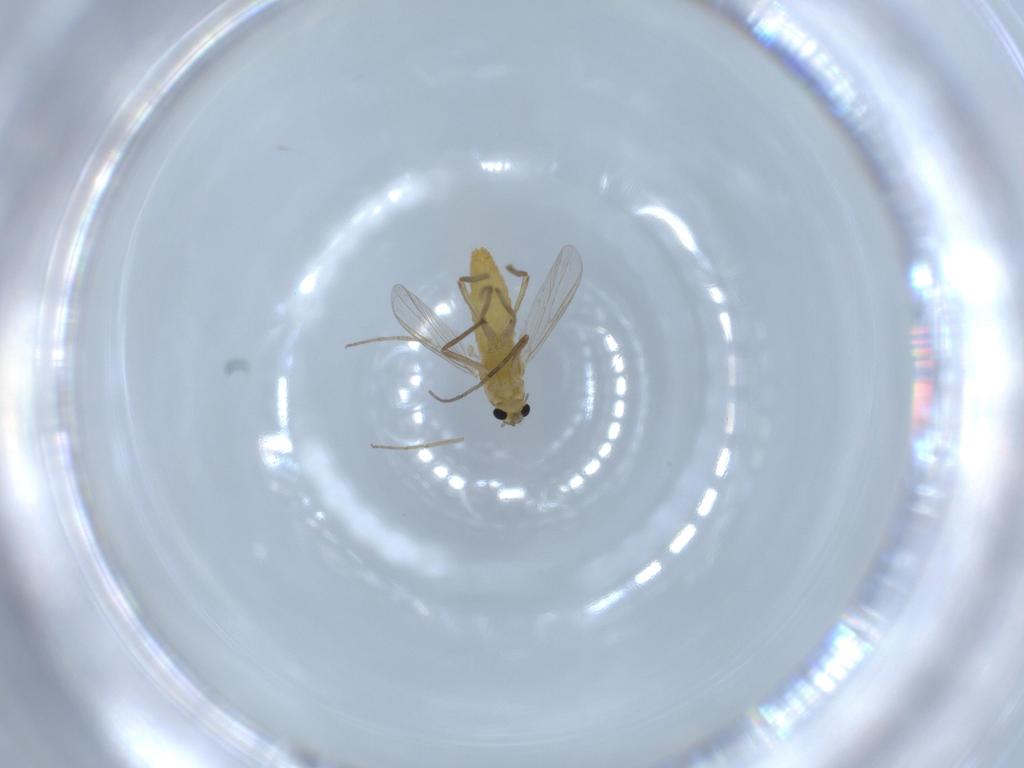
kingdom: Animalia
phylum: Arthropoda
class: Insecta
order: Diptera
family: Chironomidae
